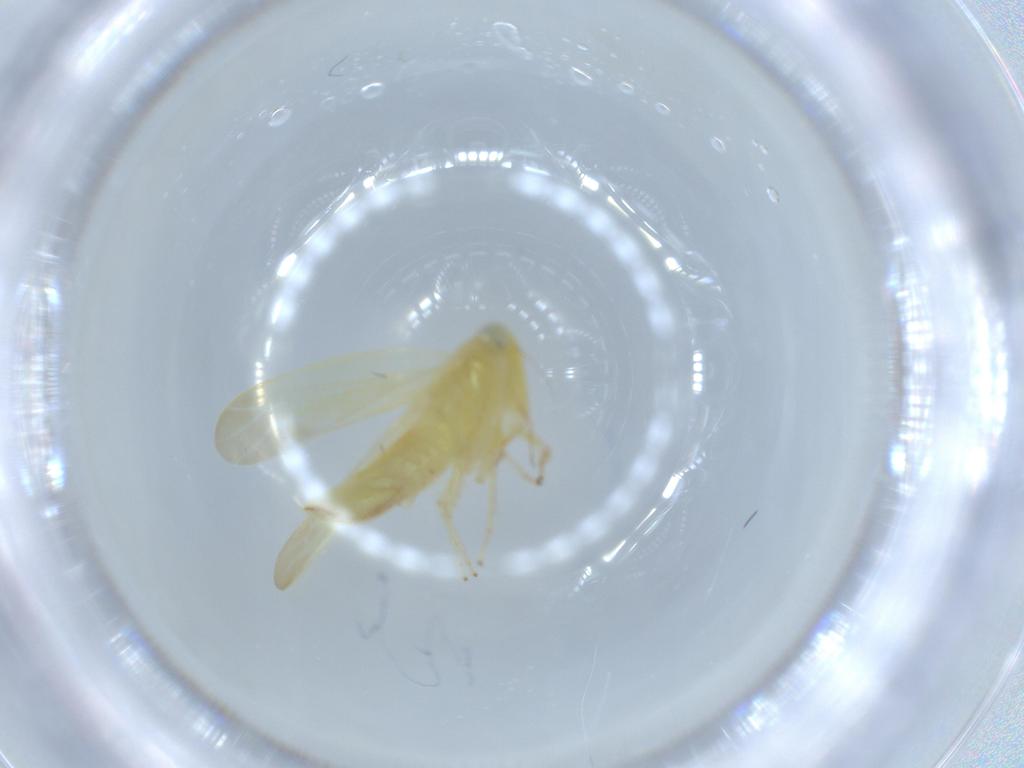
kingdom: Animalia
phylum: Arthropoda
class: Insecta
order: Hemiptera
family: Cicadellidae
